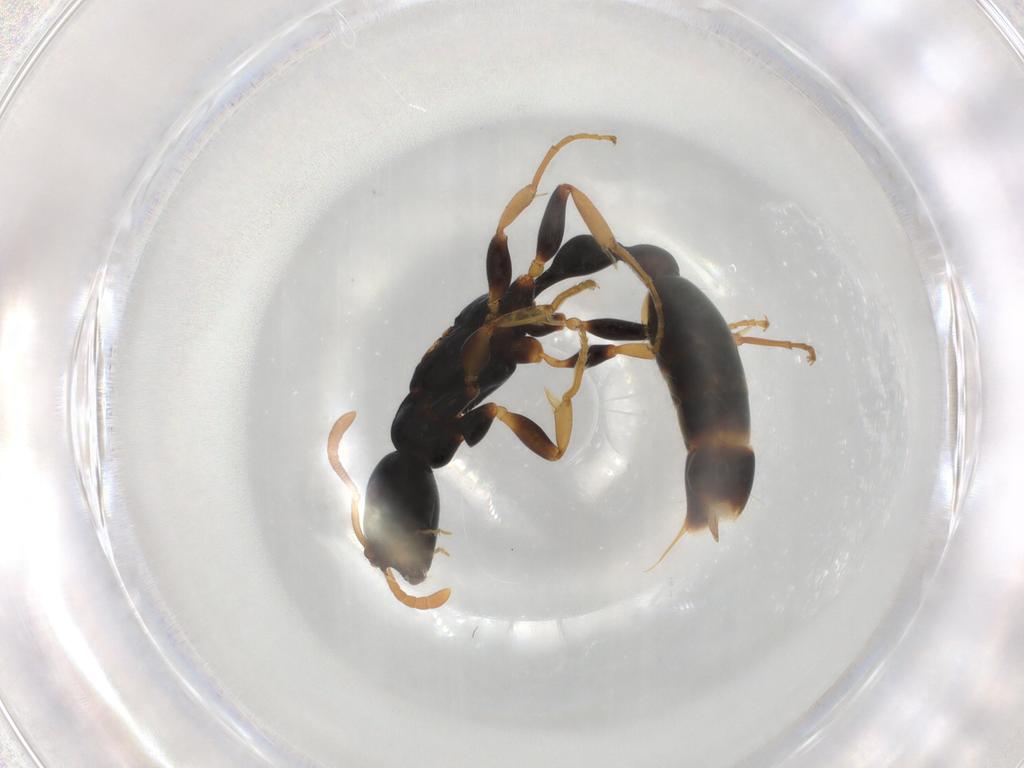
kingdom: Animalia
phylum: Arthropoda
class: Insecta
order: Hymenoptera
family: Formicidae
